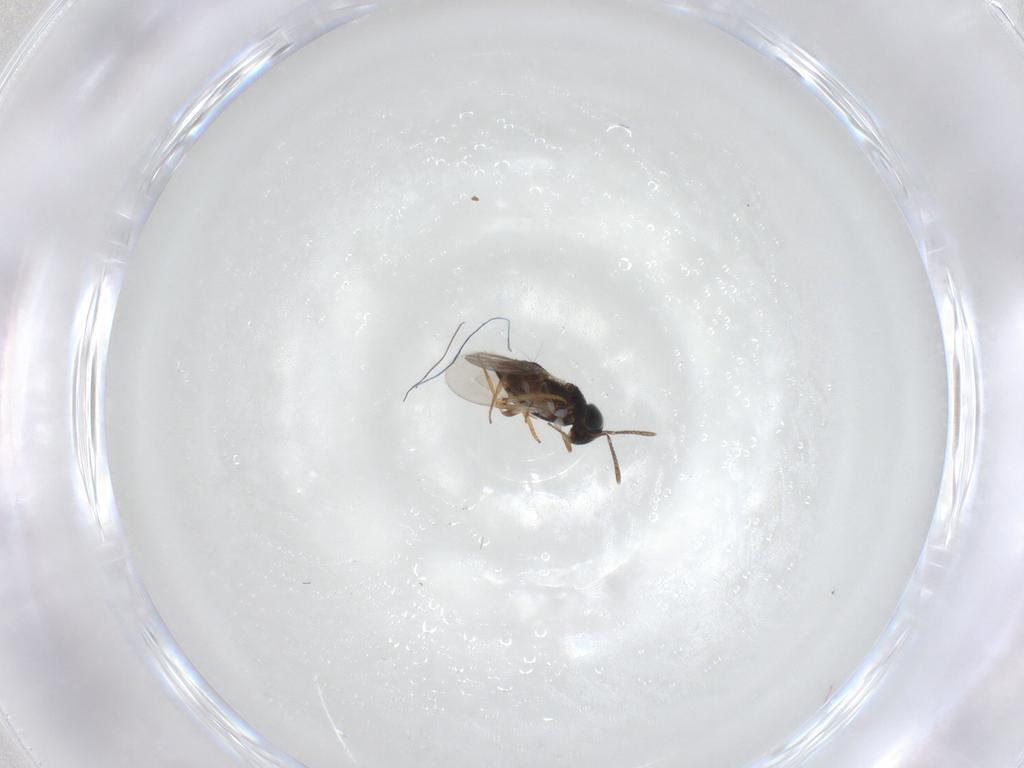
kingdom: Animalia
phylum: Arthropoda
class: Insecta
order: Hymenoptera
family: Encyrtidae
